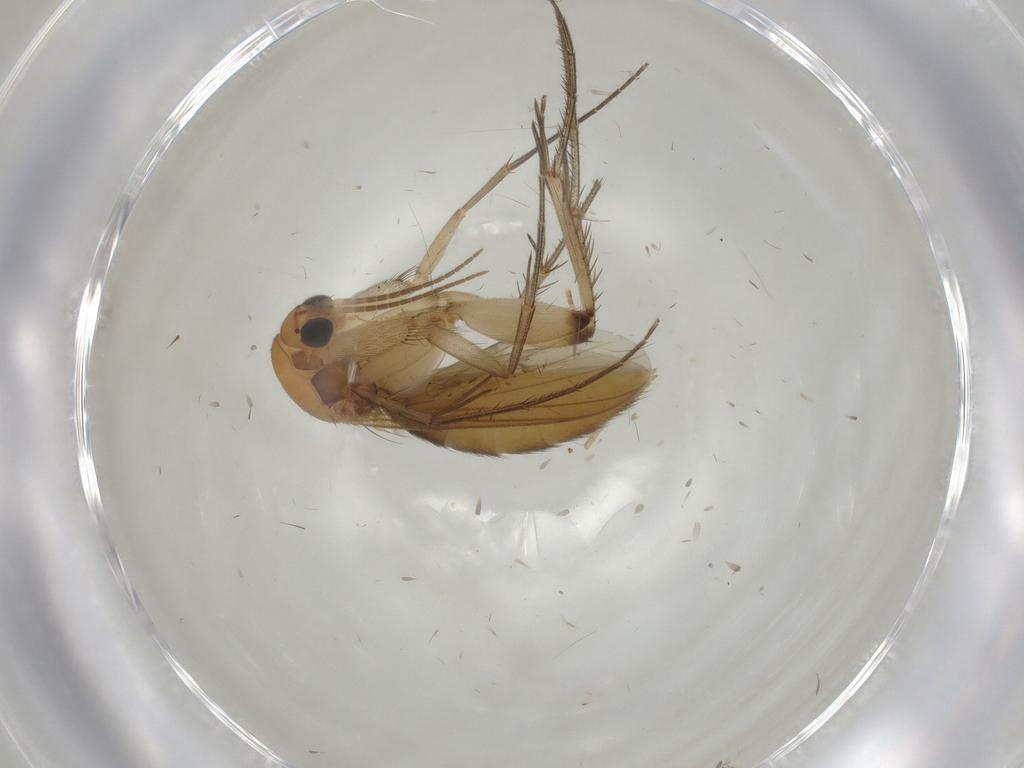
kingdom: Animalia
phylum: Arthropoda
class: Insecta
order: Diptera
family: Mycetophilidae
